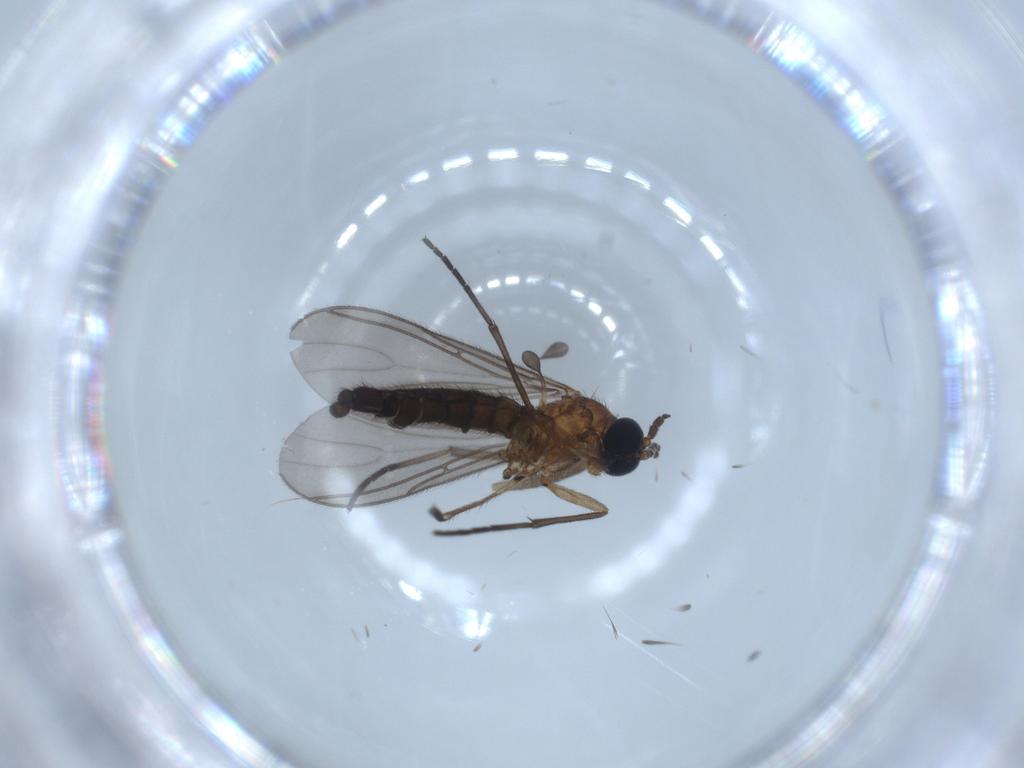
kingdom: Animalia
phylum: Arthropoda
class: Insecta
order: Diptera
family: Sciaridae
